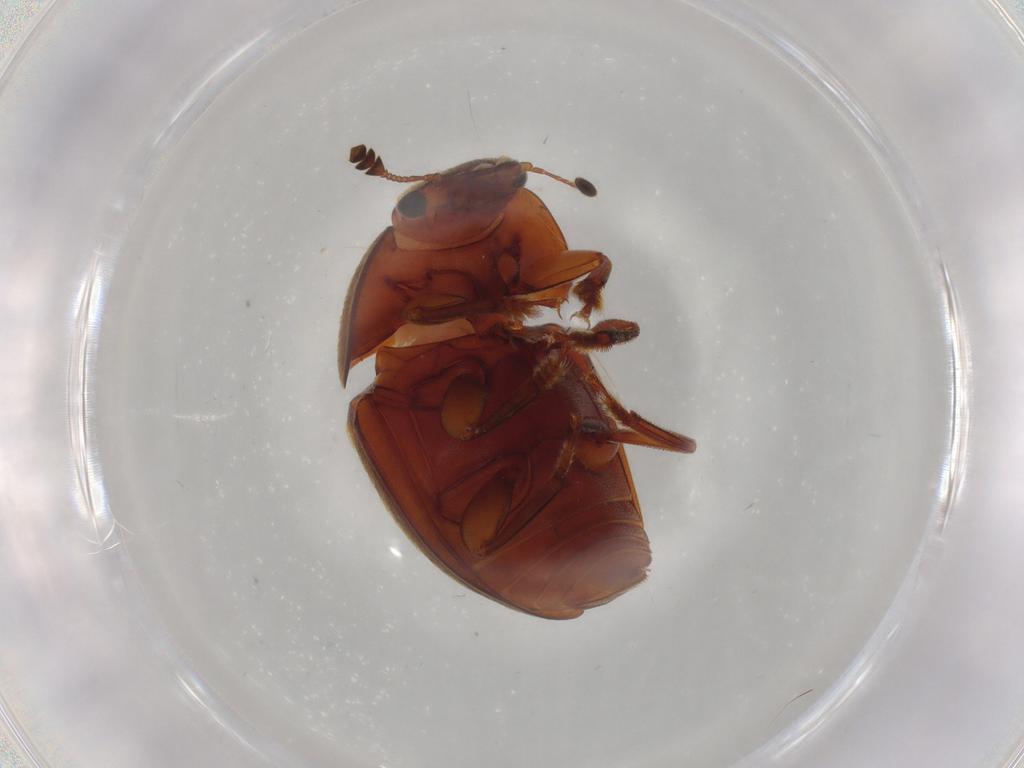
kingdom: Animalia
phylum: Arthropoda
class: Insecta
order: Coleoptera
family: Nitidulidae
